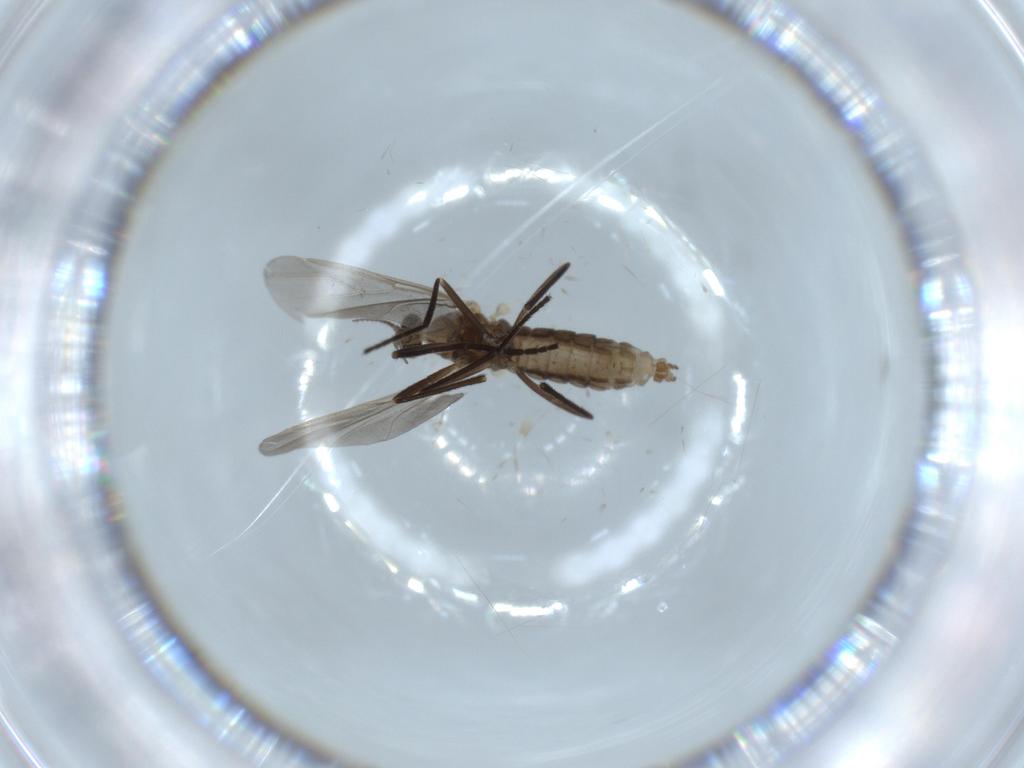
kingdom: Animalia
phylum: Arthropoda
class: Insecta
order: Diptera
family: Cecidomyiidae
